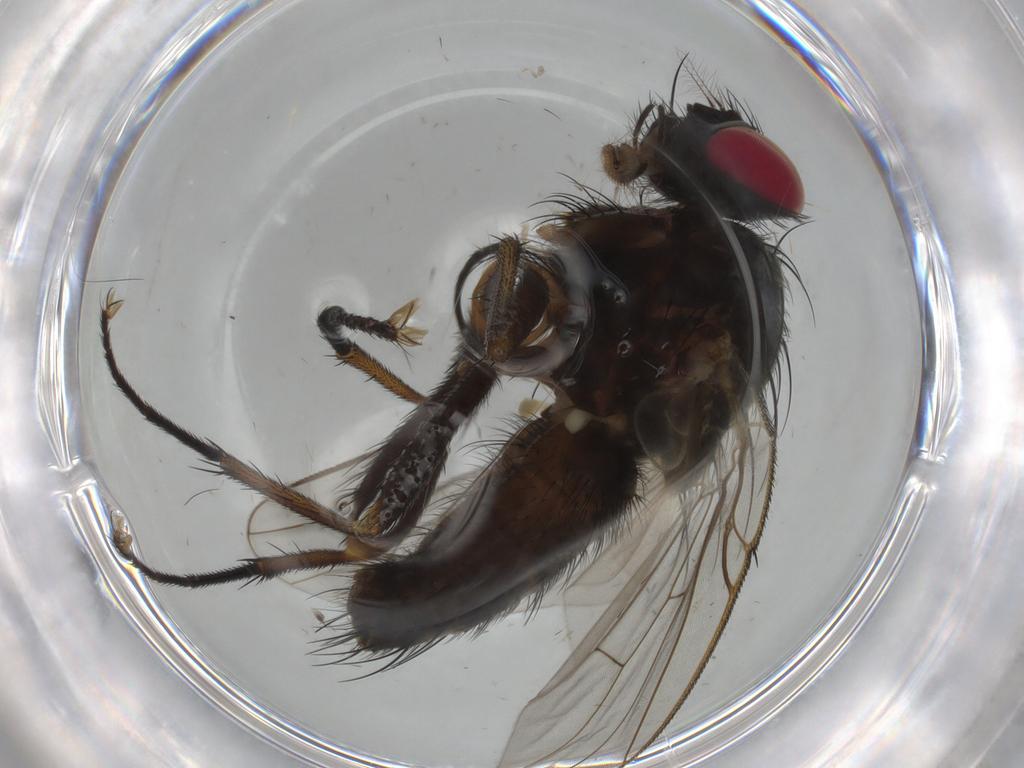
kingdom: Animalia
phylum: Arthropoda
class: Insecta
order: Diptera
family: Muscidae
